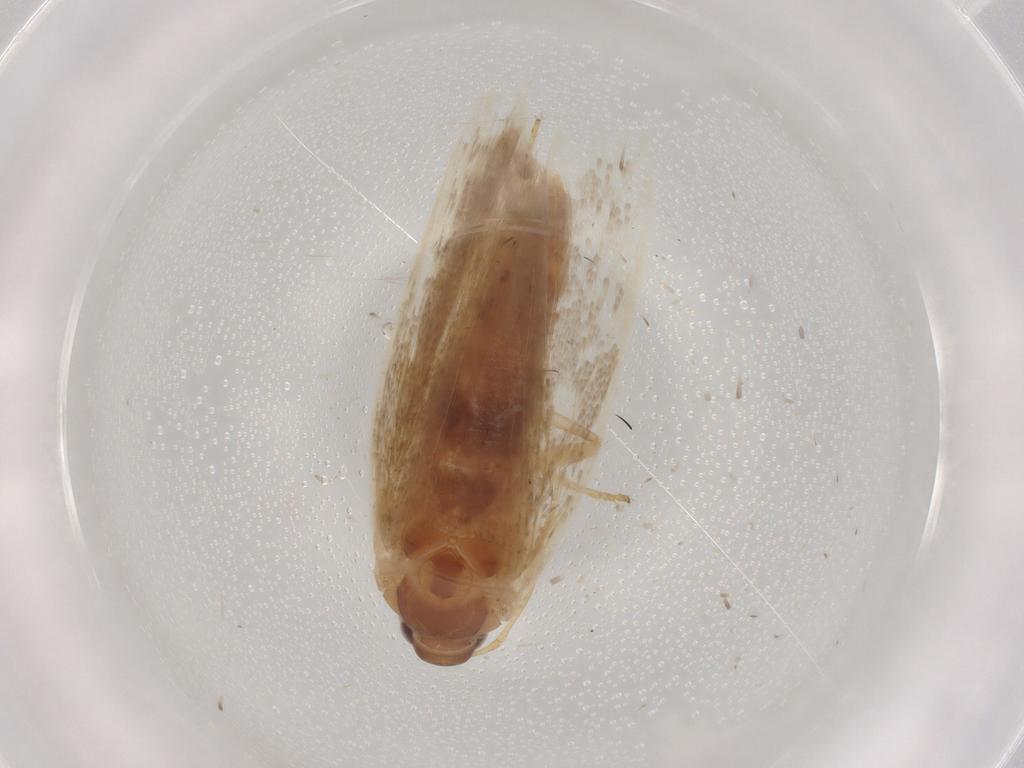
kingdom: Animalia
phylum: Arthropoda
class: Insecta
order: Lepidoptera
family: Gelechiidae
